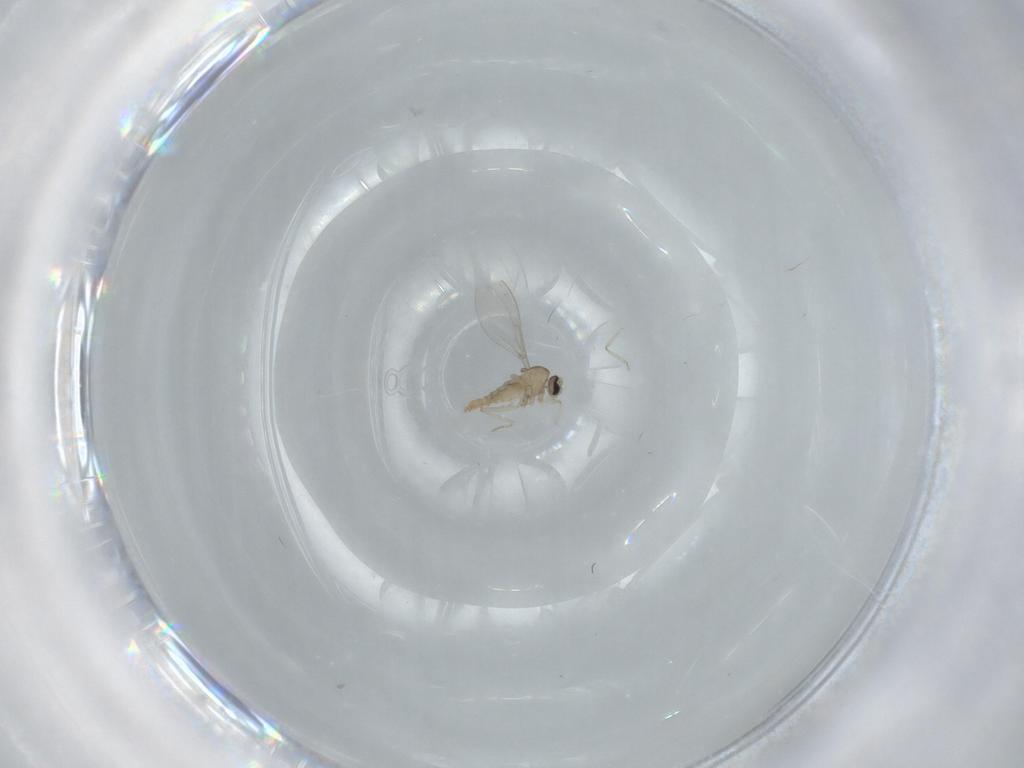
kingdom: Animalia
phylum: Arthropoda
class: Insecta
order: Diptera
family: Cecidomyiidae
